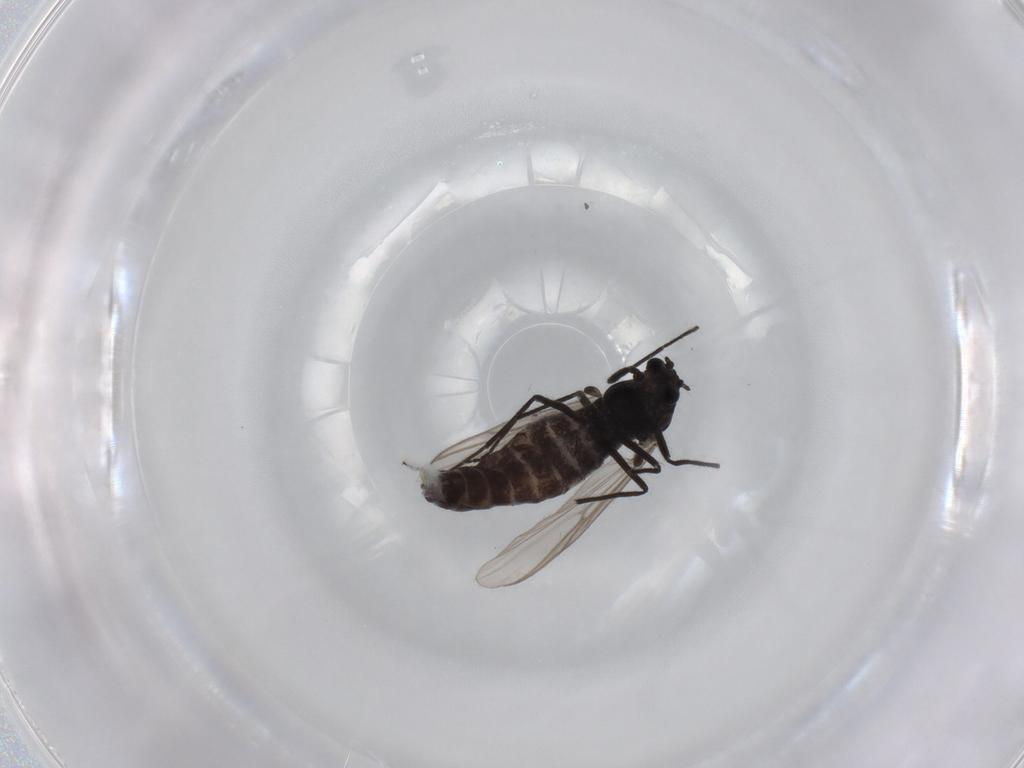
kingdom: Animalia
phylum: Arthropoda
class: Insecta
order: Diptera
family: Chironomidae
